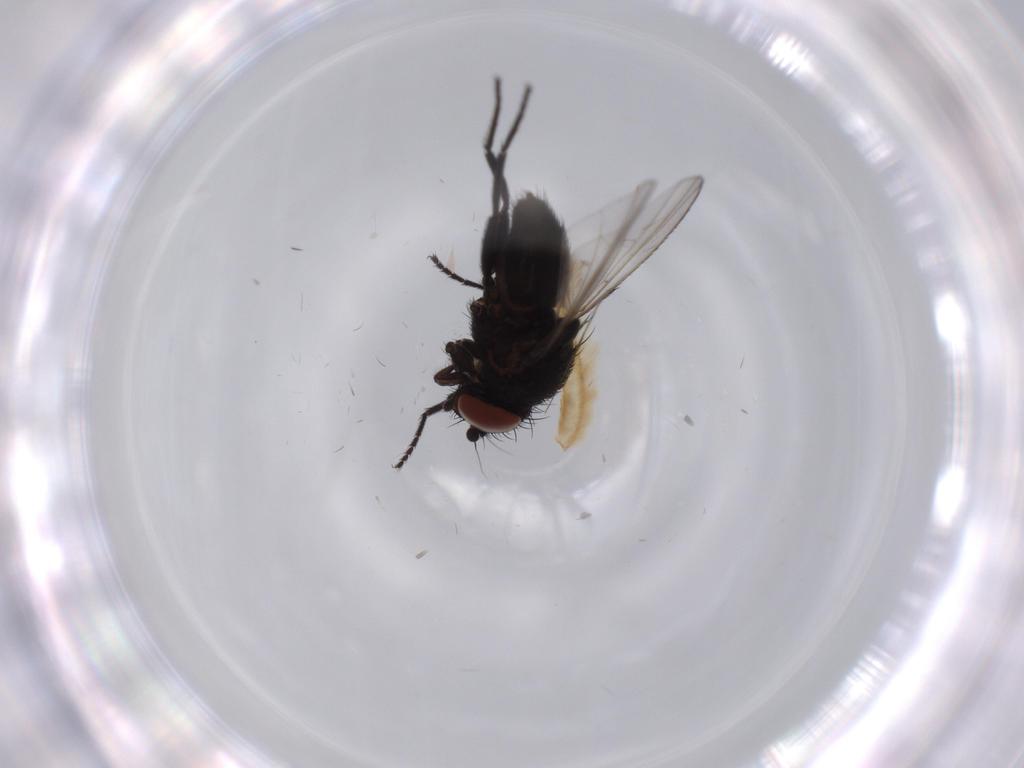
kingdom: Animalia
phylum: Arthropoda
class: Insecta
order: Diptera
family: Milichiidae
